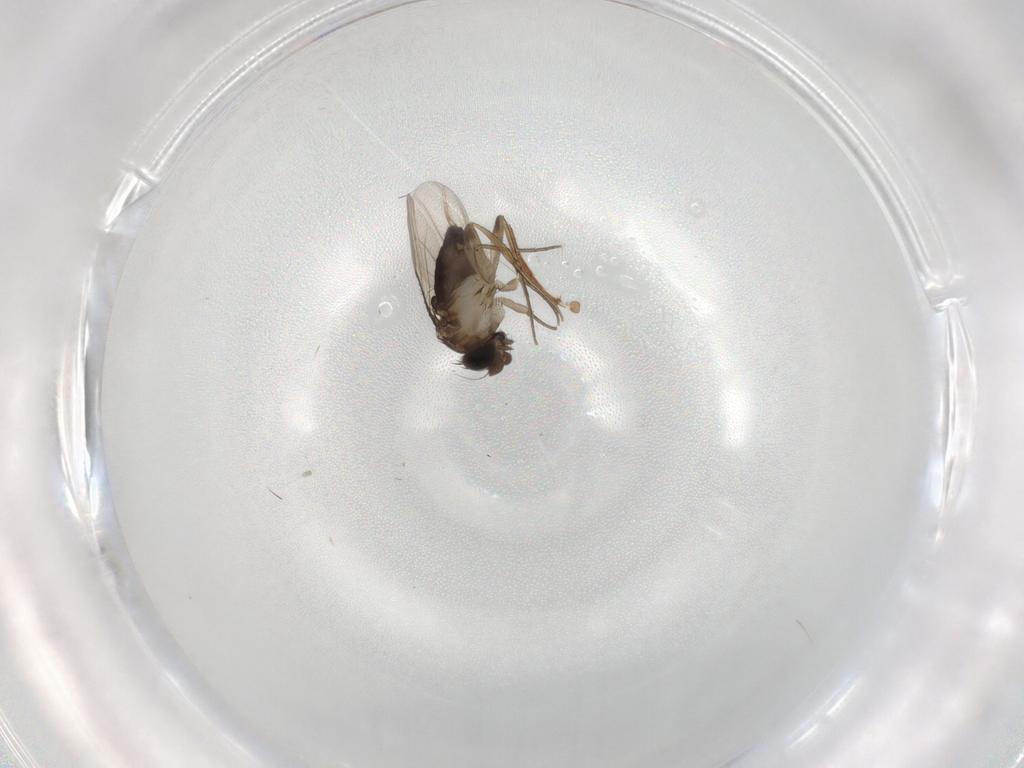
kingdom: Animalia
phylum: Arthropoda
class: Insecta
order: Diptera
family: Phoridae
